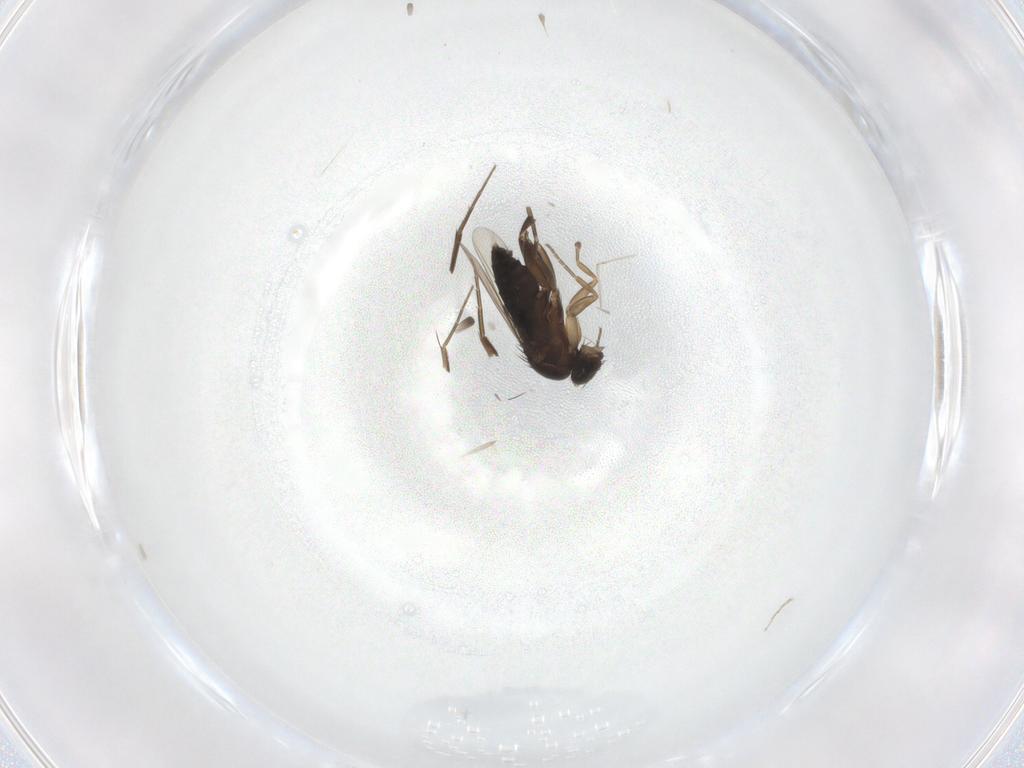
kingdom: Animalia
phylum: Arthropoda
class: Insecta
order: Diptera
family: Phoridae
